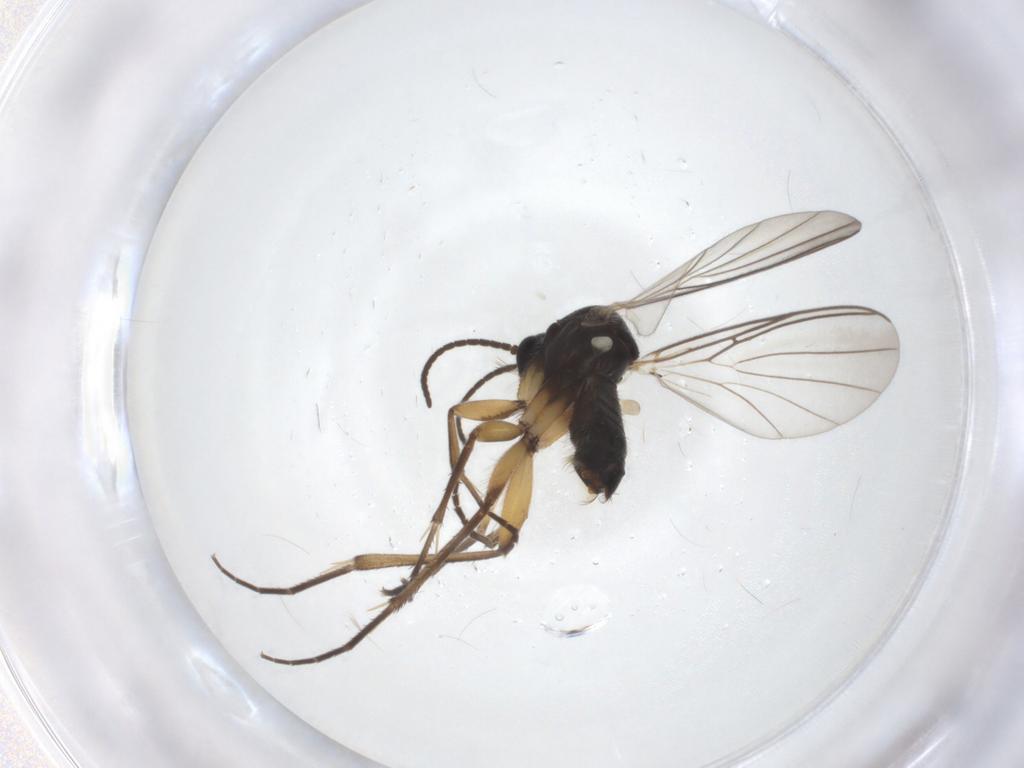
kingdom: Animalia
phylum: Arthropoda
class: Insecta
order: Diptera
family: Mycetophilidae
